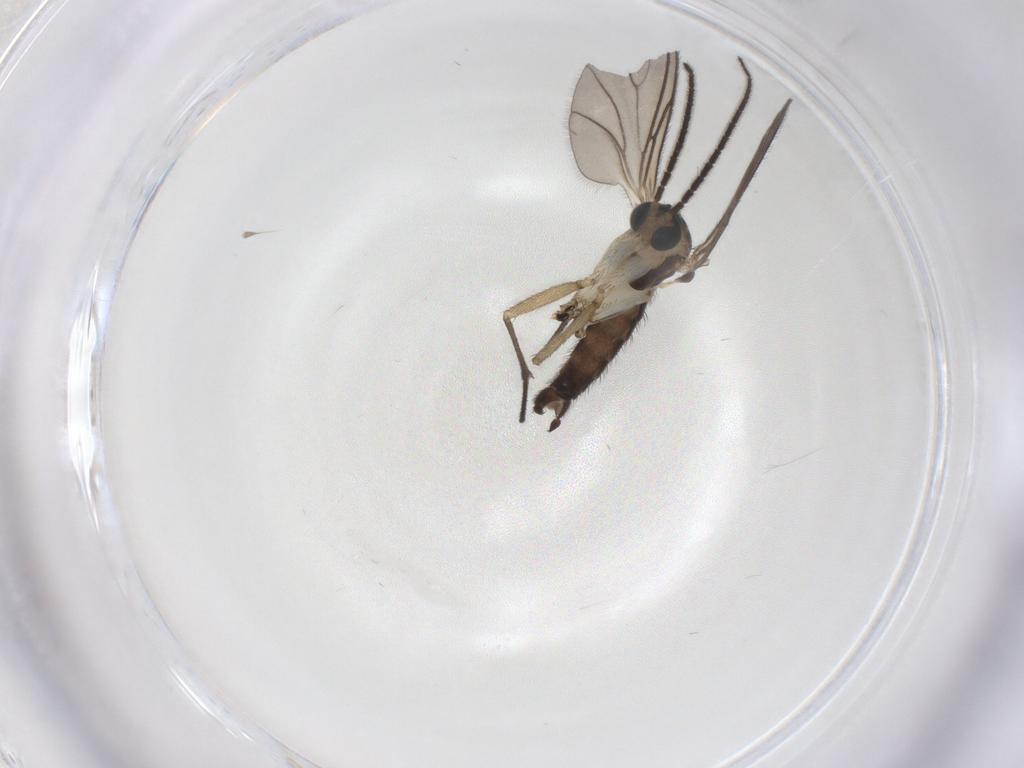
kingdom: Animalia
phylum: Arthropoda
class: Insecta
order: Diptera
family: Sciaridae
